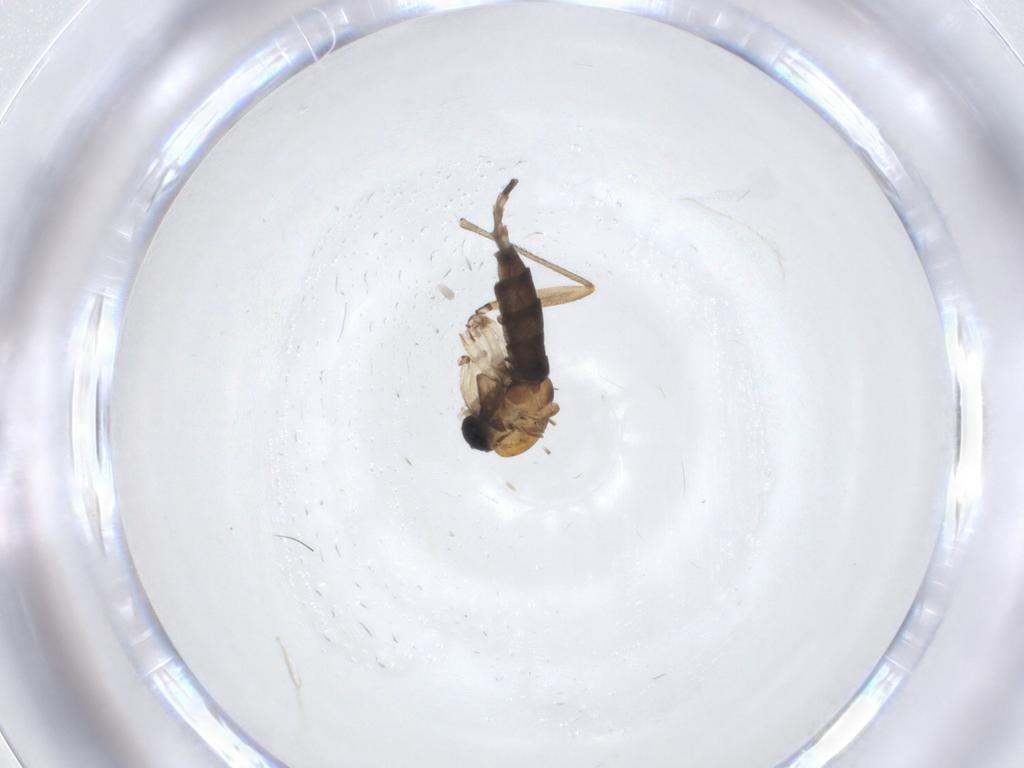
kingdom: Animalia
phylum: Arthropoda
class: Insecta
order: Diptera
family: Sciaridae
